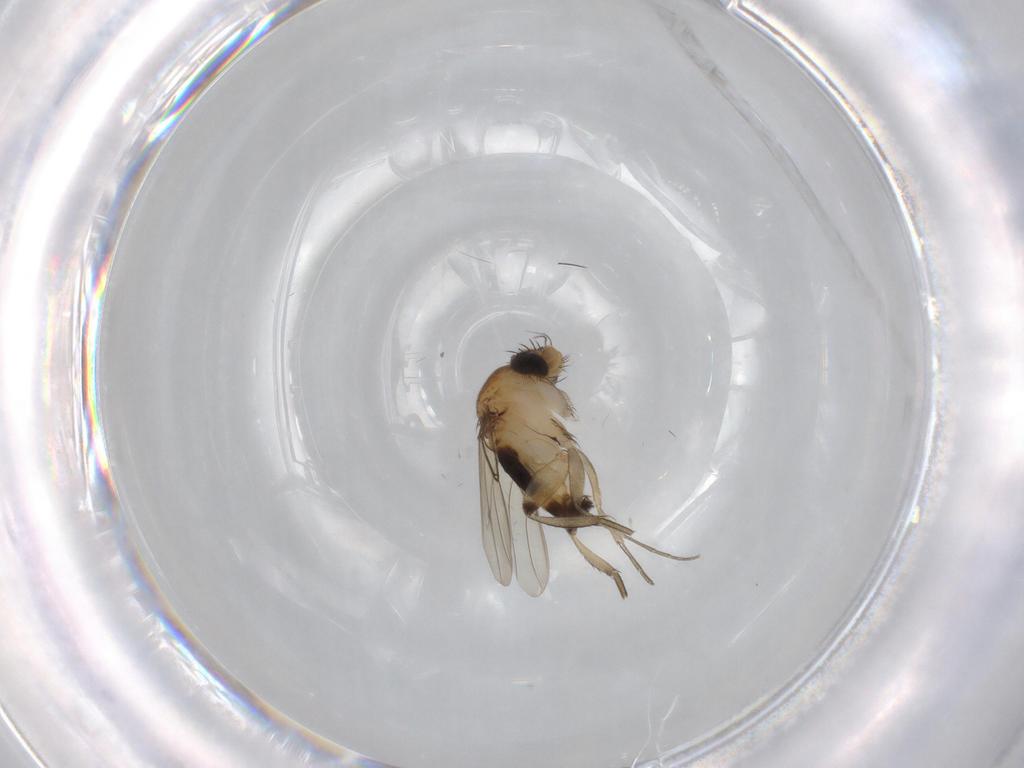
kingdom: Animalia
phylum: Arthropoda
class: Insecta
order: Diptera
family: Phoridae
